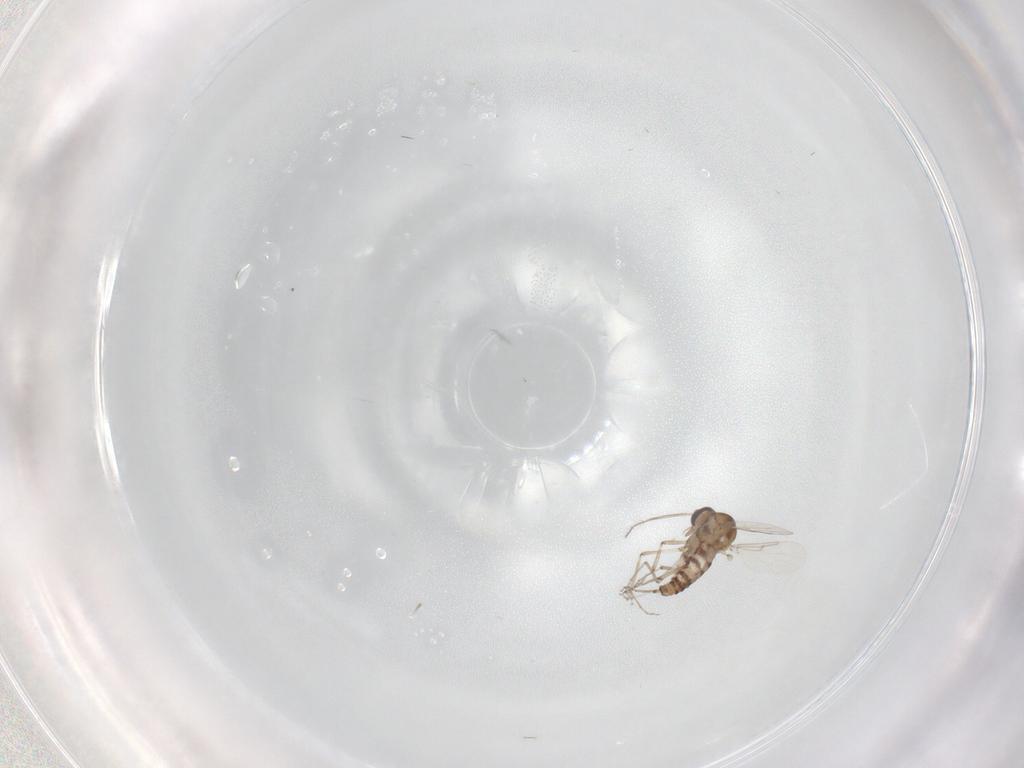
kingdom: Animalia
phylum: Arthropoda
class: Insecta
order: Diptera
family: Ceratopogonidae
